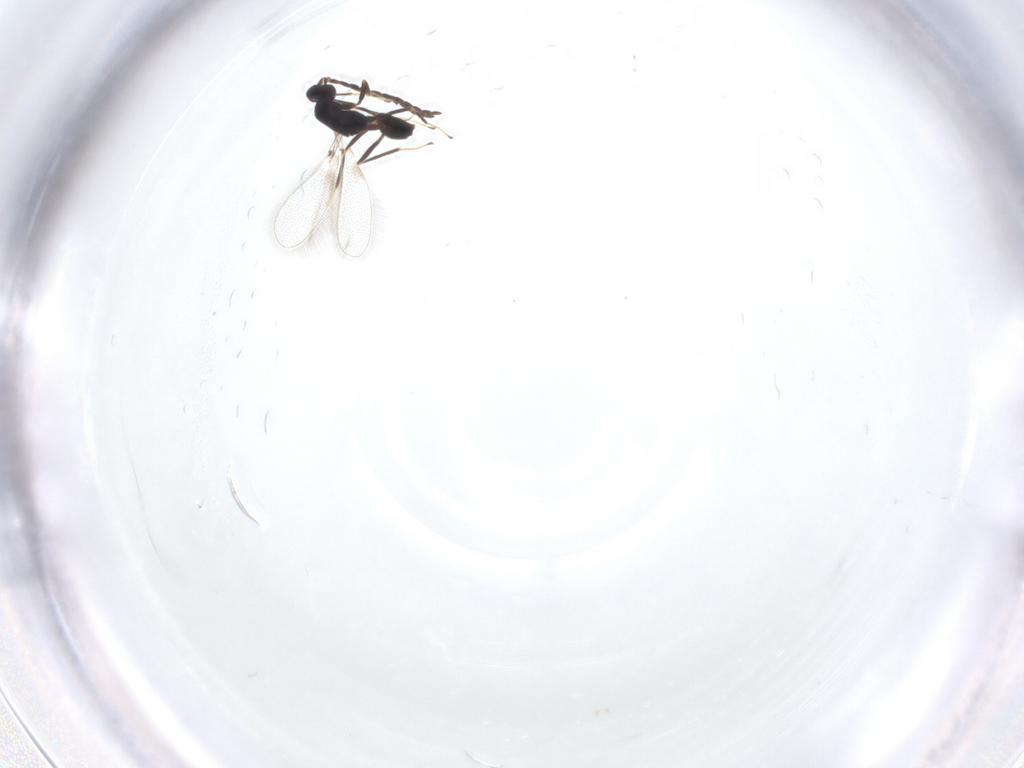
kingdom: Animalia
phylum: Arthropoda
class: Insecta
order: Hymenoptera
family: Mymaridae
